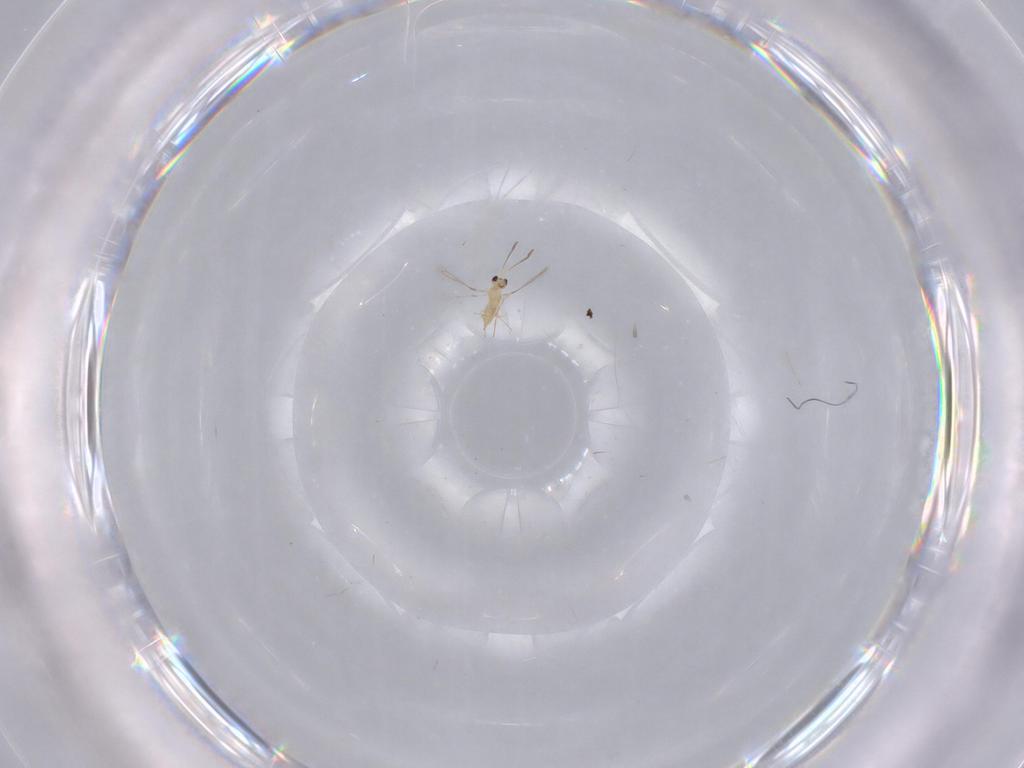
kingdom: Animalia
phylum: Arthropoda
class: Insecta
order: Hymenoptera
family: Mymaridae
